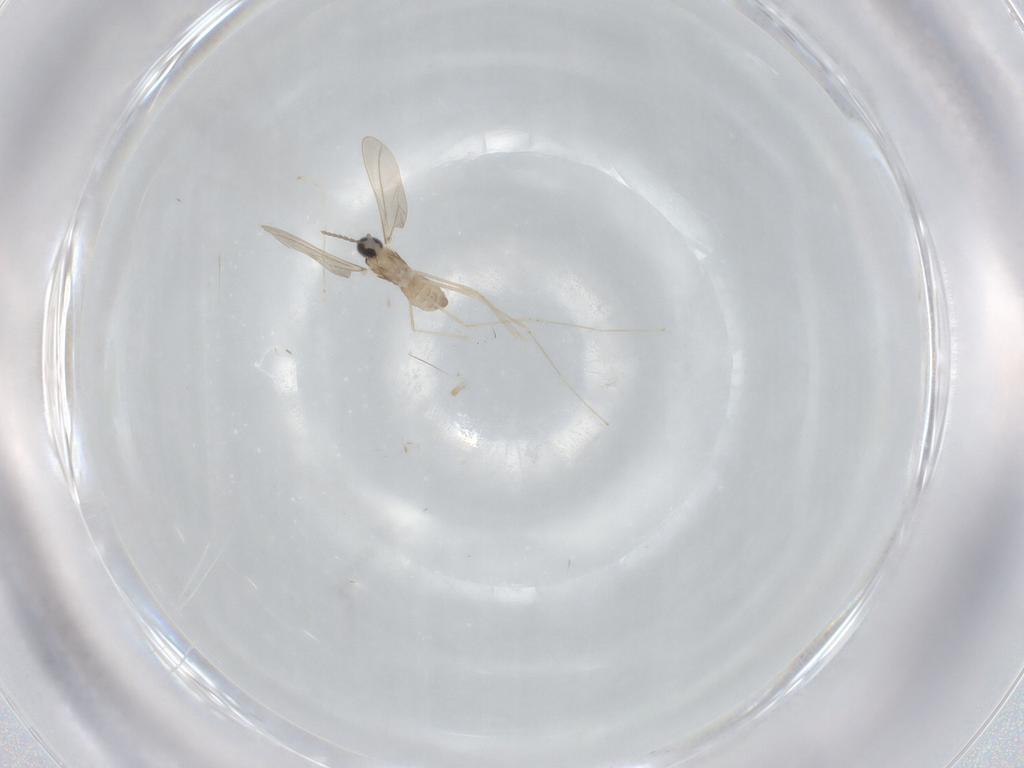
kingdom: Animalia
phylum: Arthropoda
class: Insecta
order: Diptera
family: Cecidomyiidae
